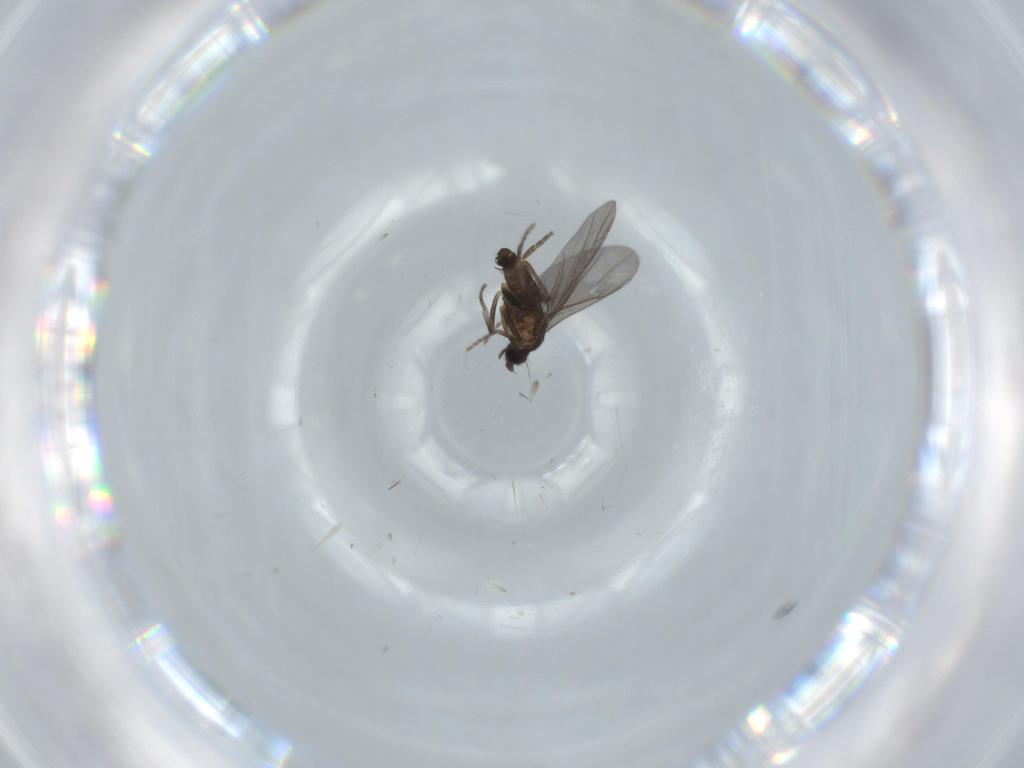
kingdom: Animalia
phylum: Arthropoda
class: Insecta
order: Diptera
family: Phoridae
